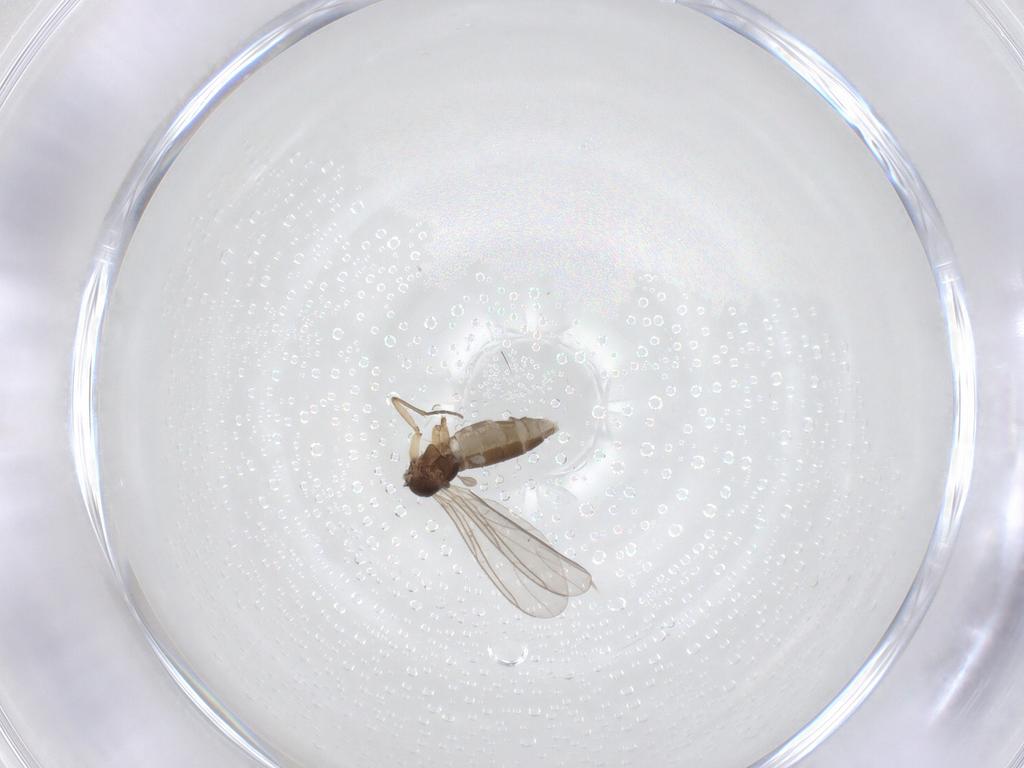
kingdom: Animalia
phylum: Arthropoda
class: Insecta
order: Diptera
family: Sciaridae
